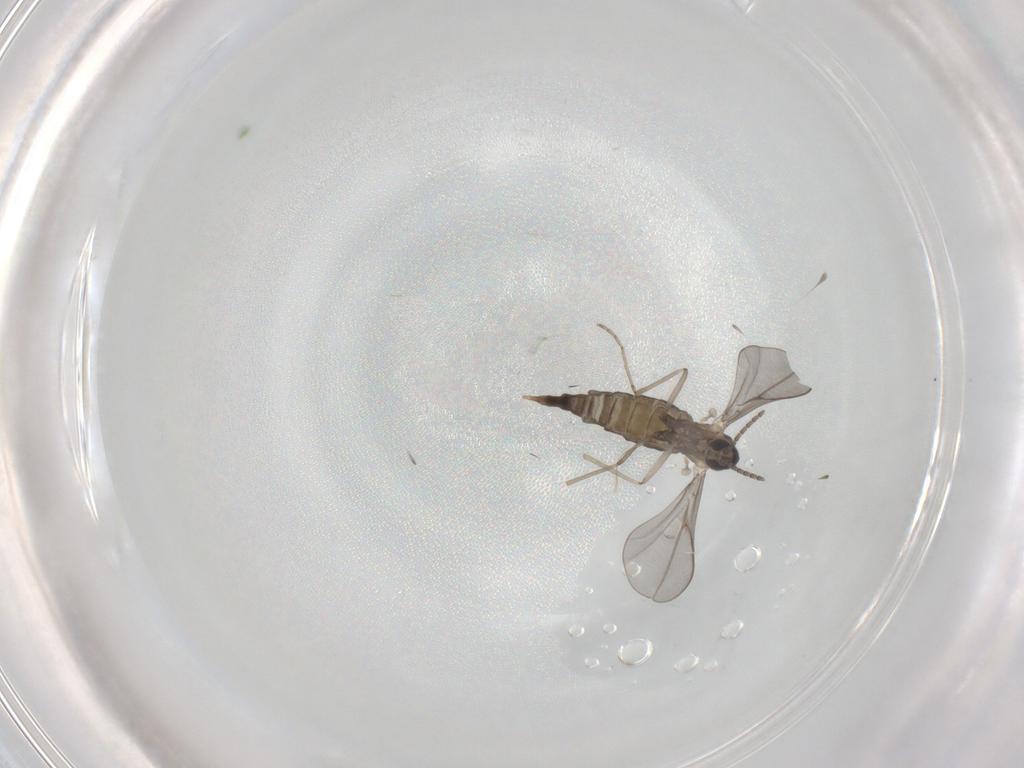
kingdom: Animalia
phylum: Arthropoda
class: Insecta
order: Diptera
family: Cecidomyiidae
